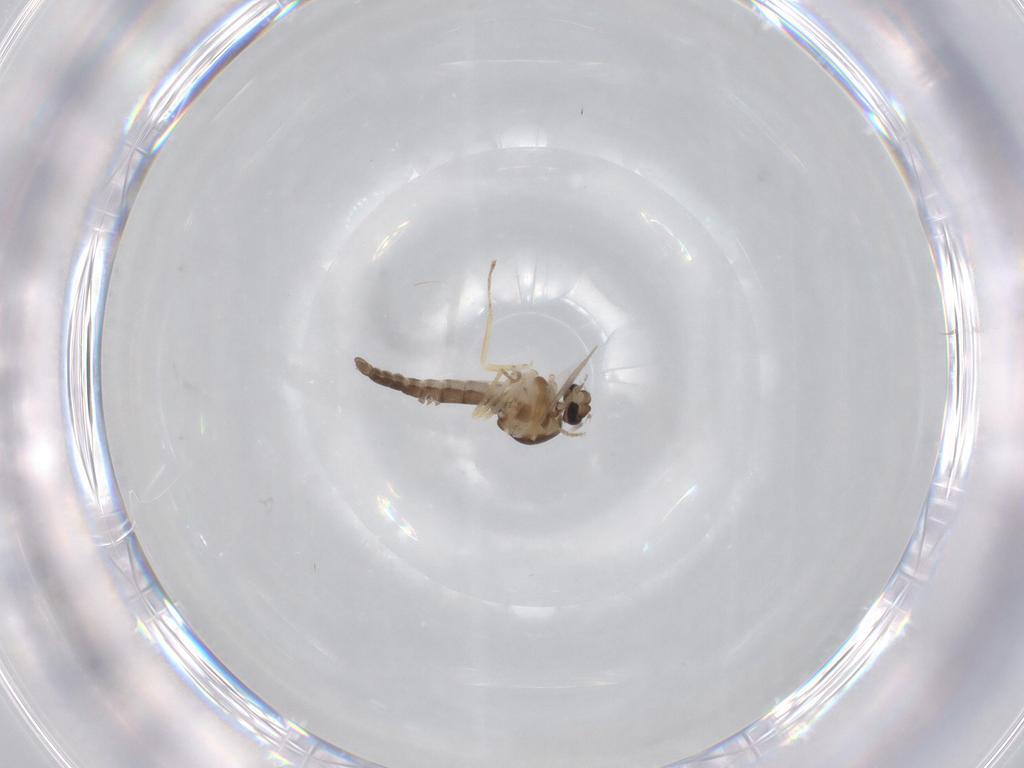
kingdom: Animalia
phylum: Arthropoda
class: Insecta
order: Diptera
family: Ceratopogonidae
